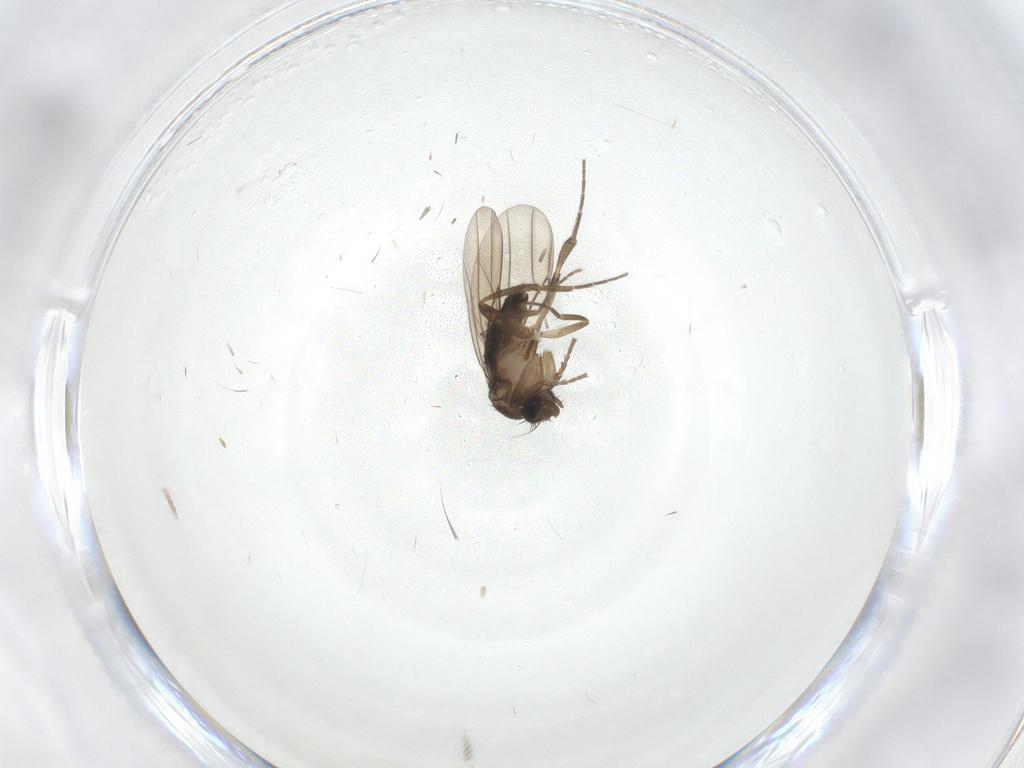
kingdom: Animalia
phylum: Arthropoda
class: Insecta
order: Diptera
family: Phoridae
